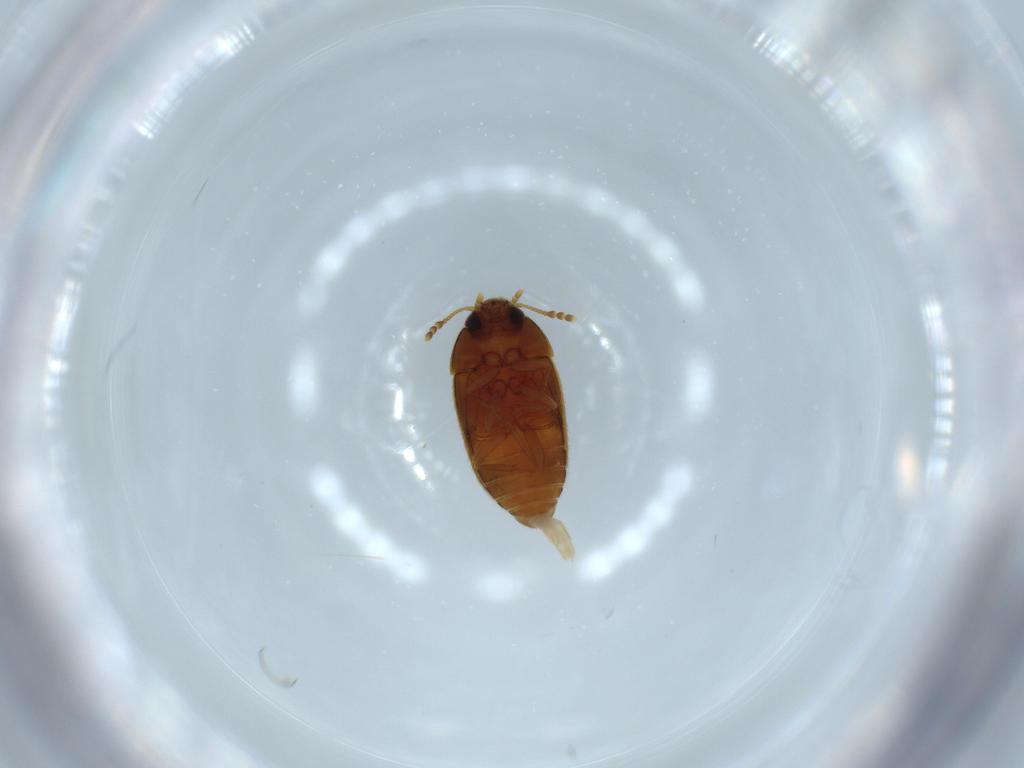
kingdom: Animalia
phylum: Arthropoda
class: Insecta
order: Coleoptera
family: Mycetophagidae
